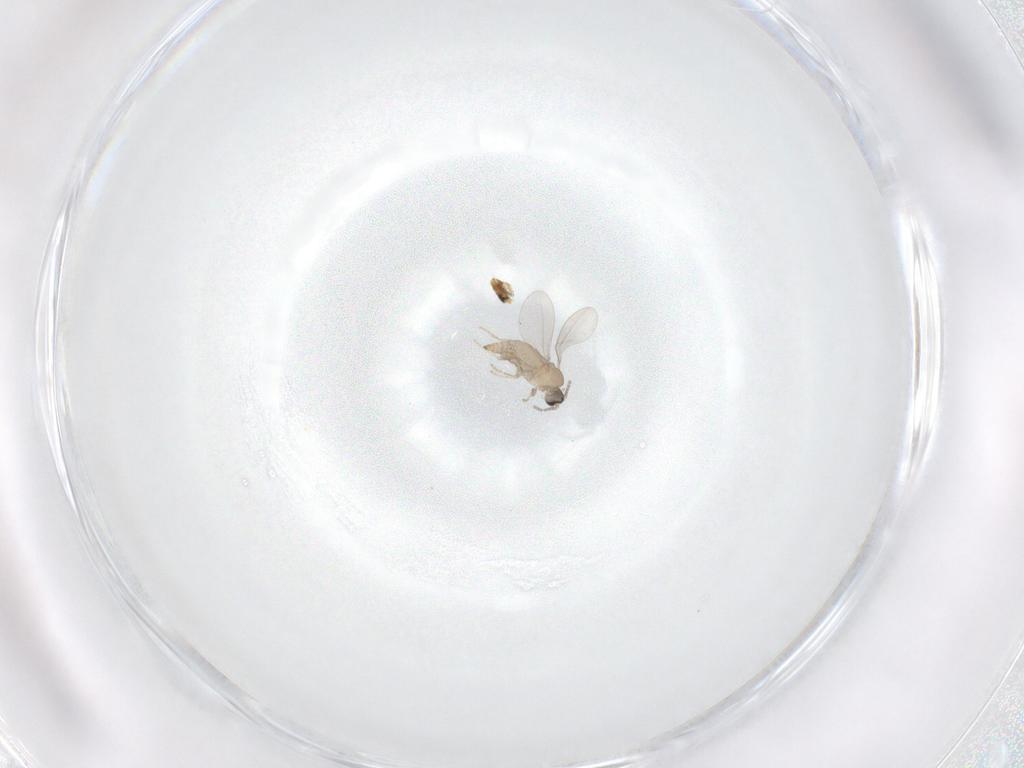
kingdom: Animalia
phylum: Arthropoda
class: Insecta
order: Diptera
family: Cecidomyiidae
